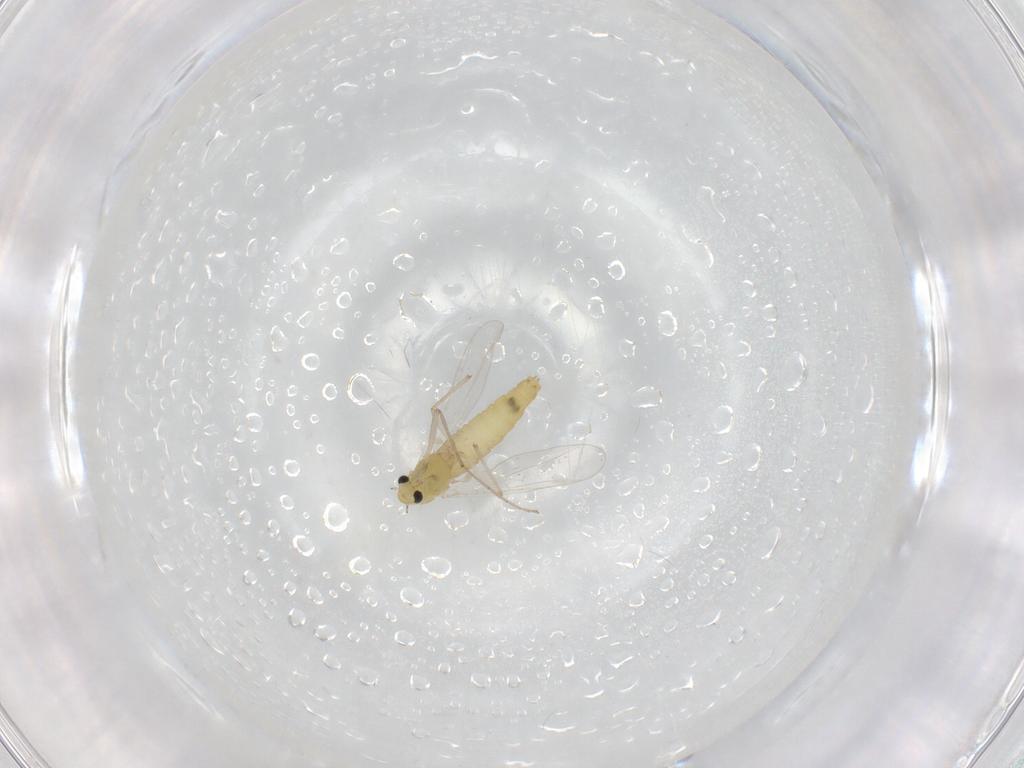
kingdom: Animalia
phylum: Arthropoda
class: Insecta
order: Diptera
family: Chironomidae
